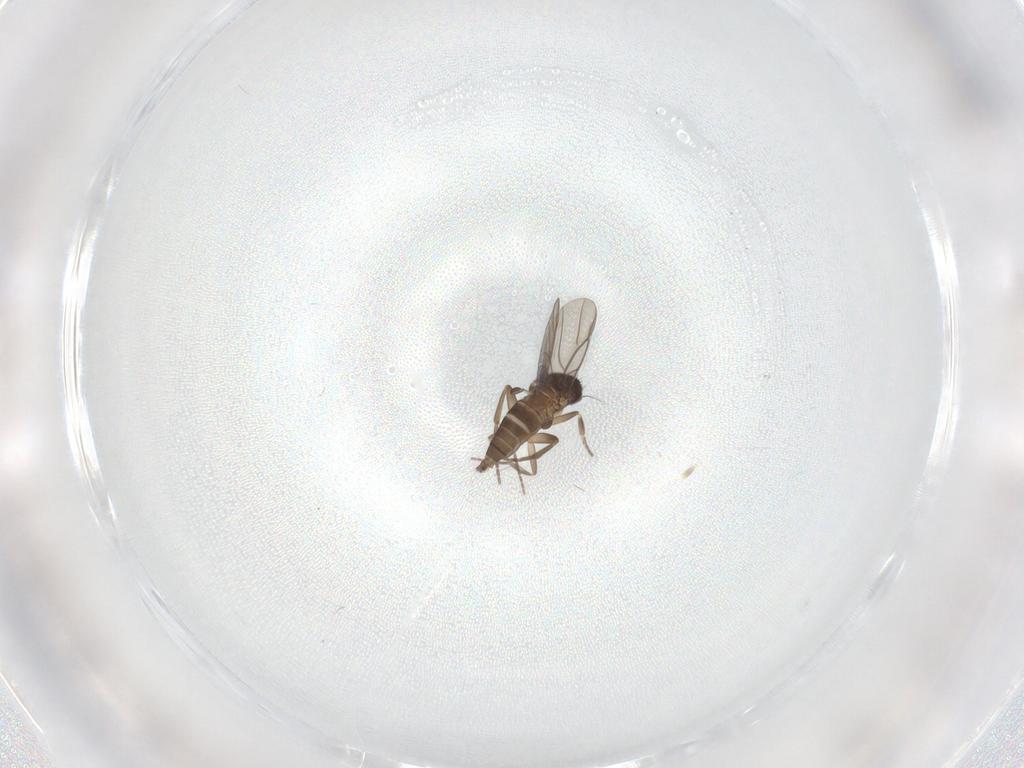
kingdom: Animalia
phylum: Arthropoda
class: Insecta
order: Diptera
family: Phoridae
